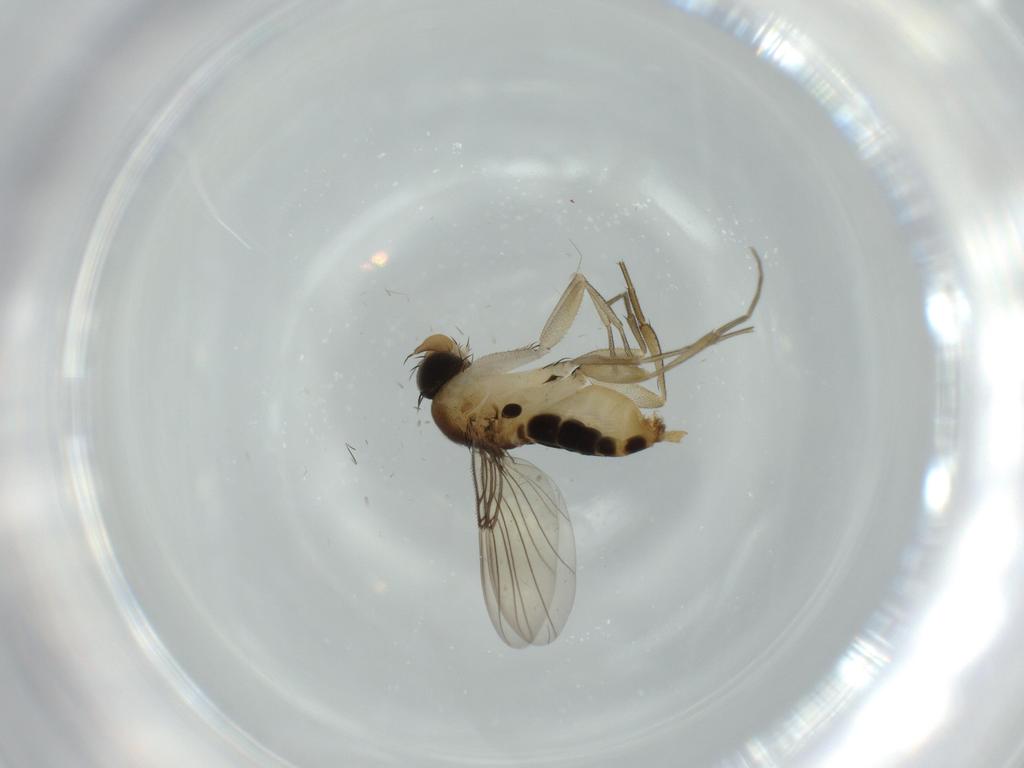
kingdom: Animalia
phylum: Arthropoda
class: Insecta
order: Diptera
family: Phoridae
